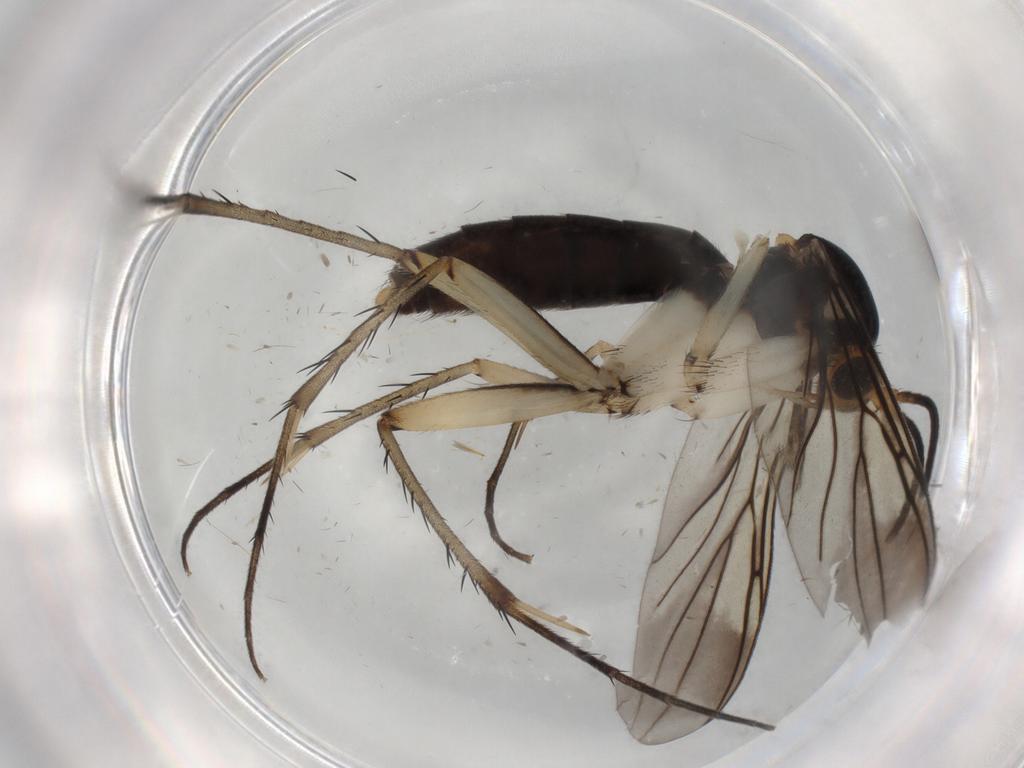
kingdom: Animalia
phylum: Arthropoda
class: Insecta
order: Diptera
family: Mycetophilidae
